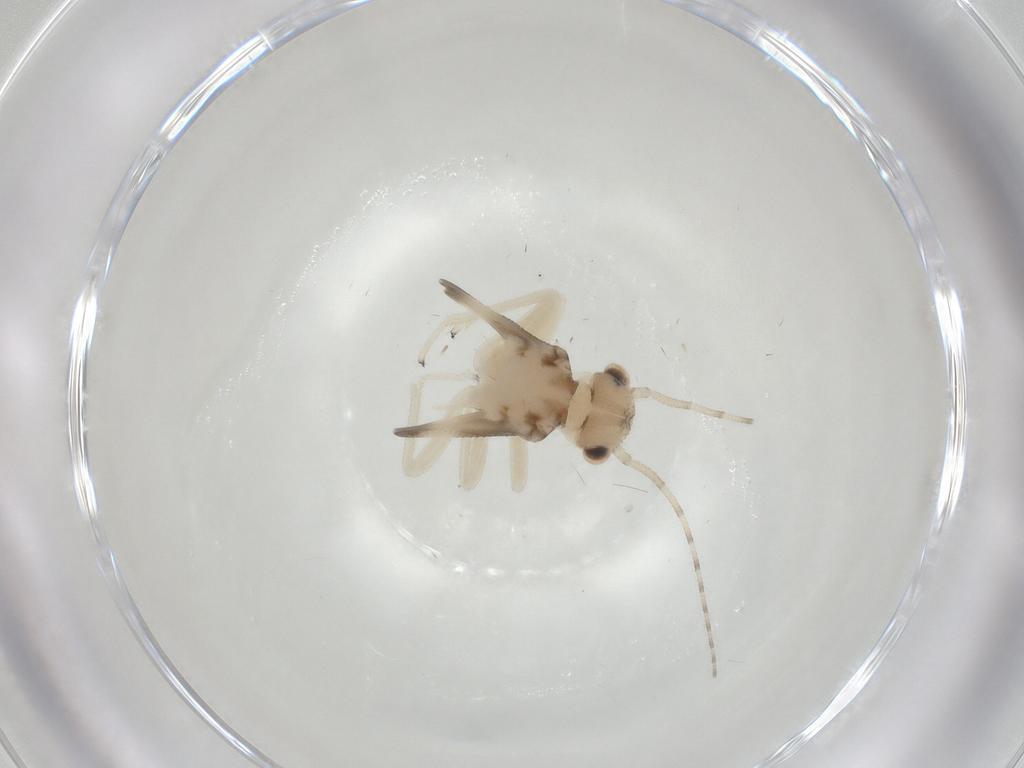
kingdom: Animalia
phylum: Arthropoda
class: Insecta
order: Psocodea
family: Amphipsocidae
